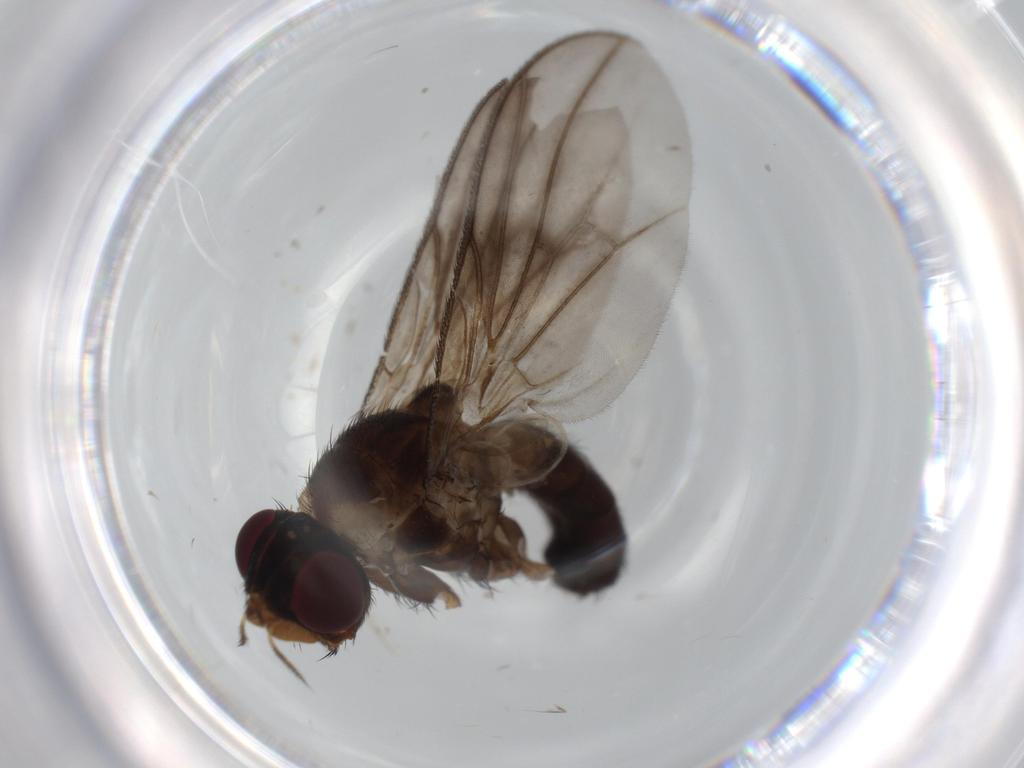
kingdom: Animalia
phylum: Arthropoda
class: Insecta
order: Diptera
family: Calliphoridae
